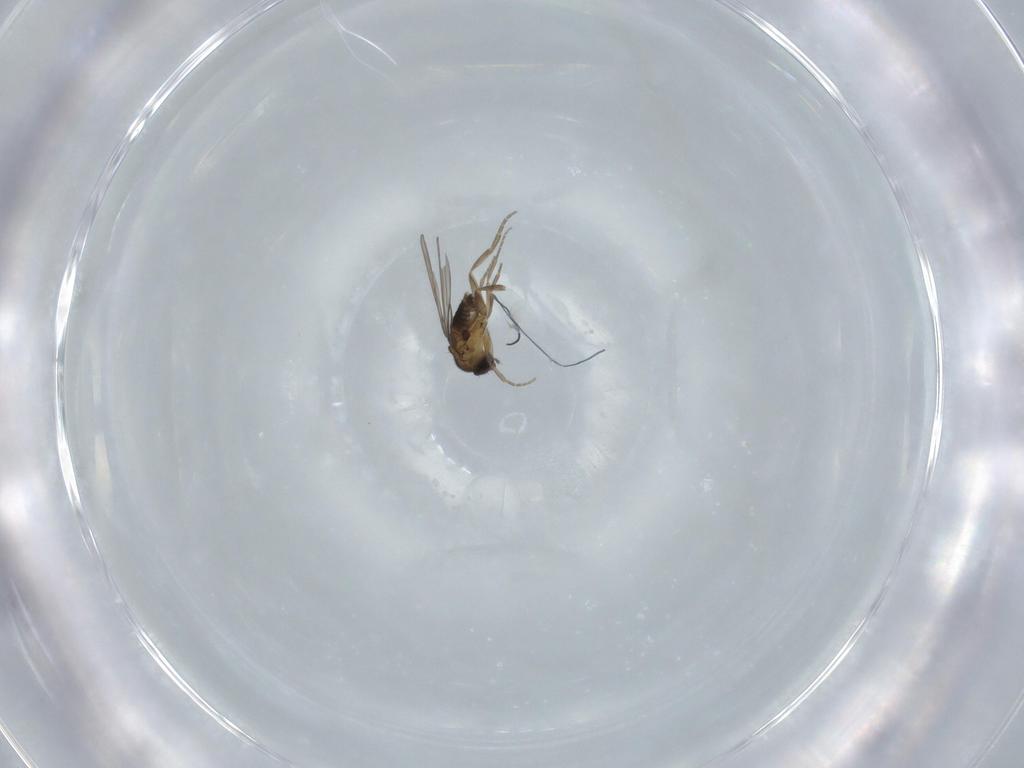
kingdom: Animalia
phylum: Arthropoda
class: Insecta
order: Diptera
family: Phoridae
